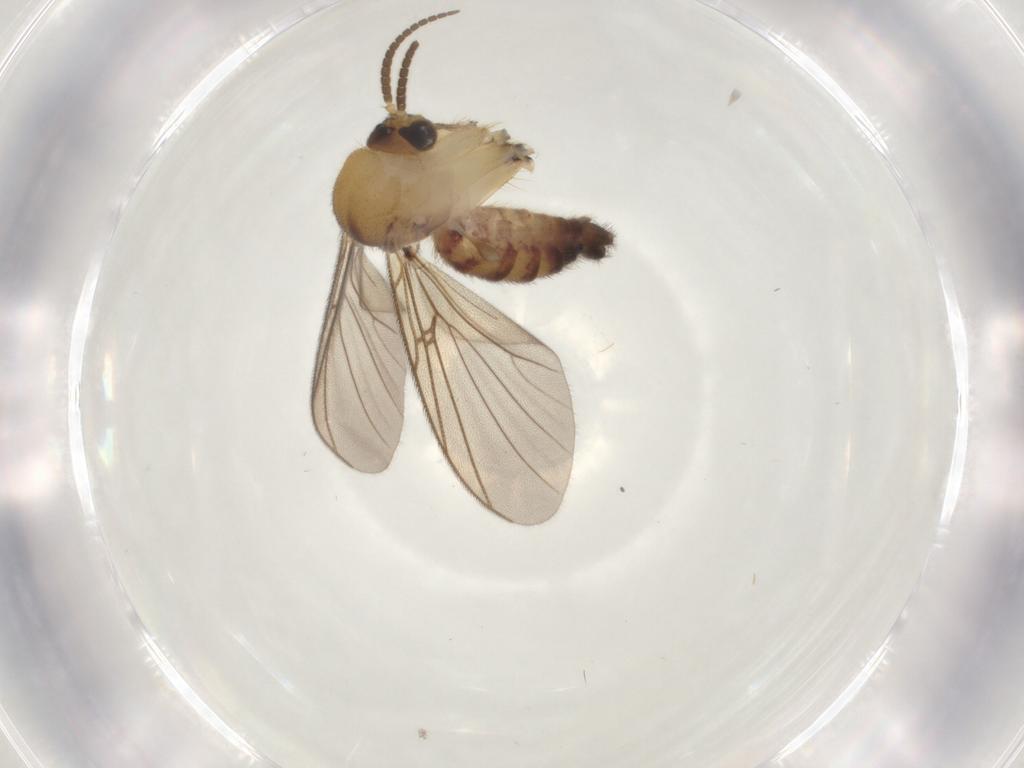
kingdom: Animalia
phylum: Arthropoda
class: Insecta
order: Diptera
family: Mycetophilidae
